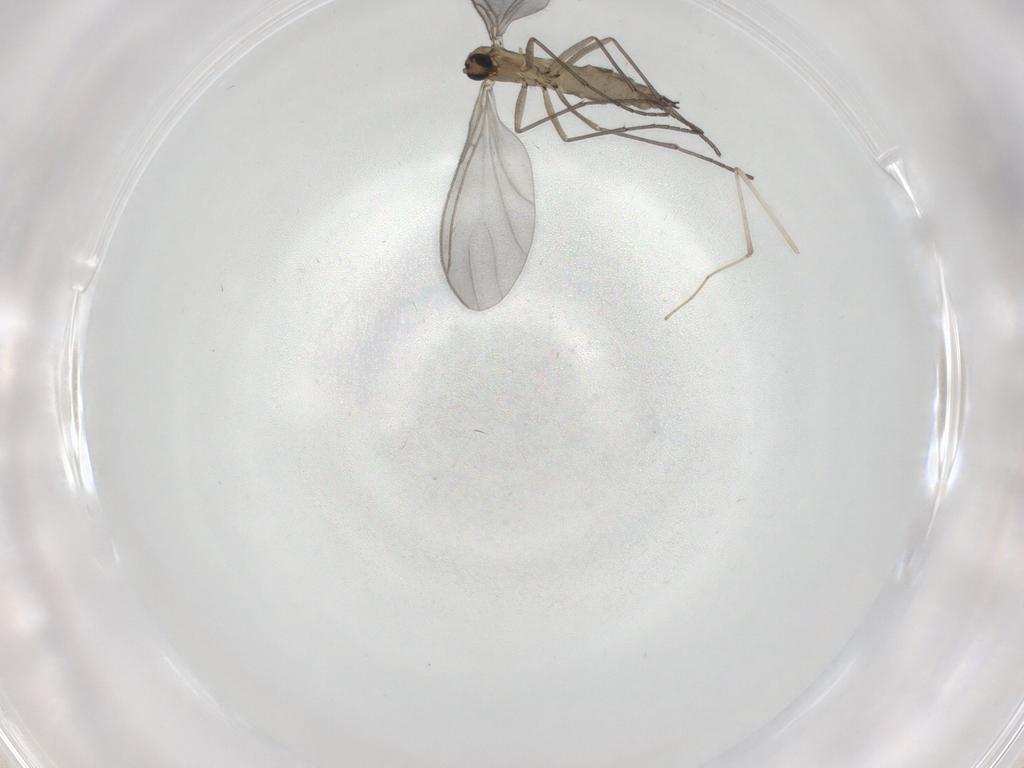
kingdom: Animalia
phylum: Arthropoda
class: Insecta
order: Diptera
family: Sciaridae
